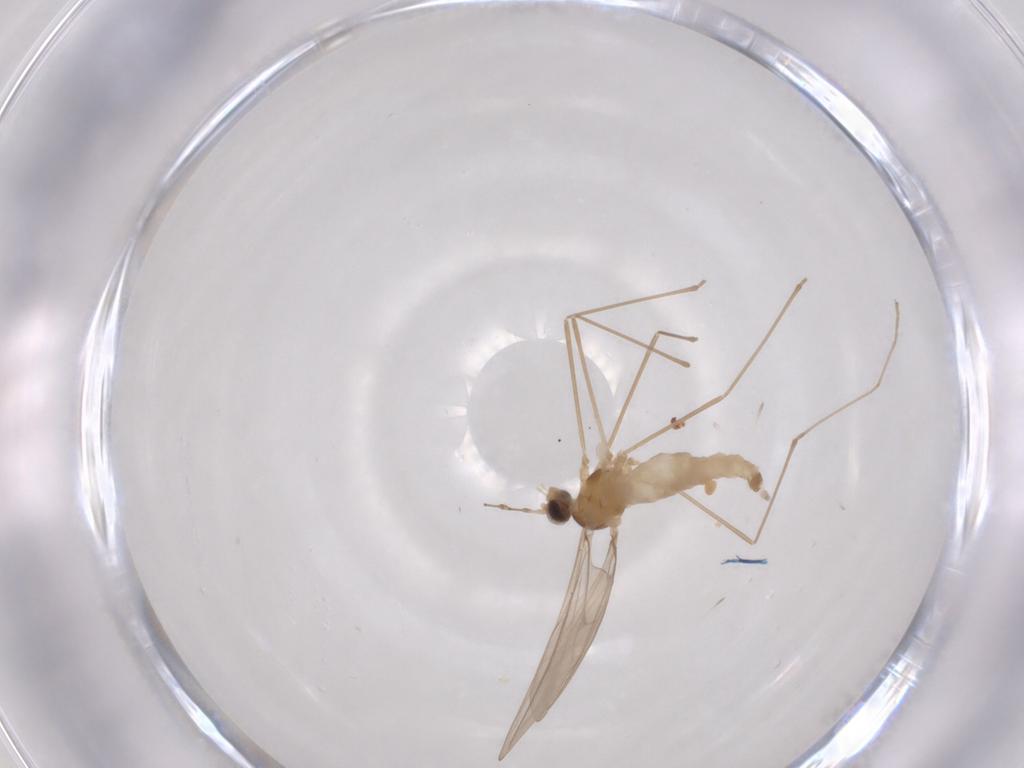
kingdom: Animalia
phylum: Arthropoda
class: Insecta
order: Diptera
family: Cecidomyiidae
